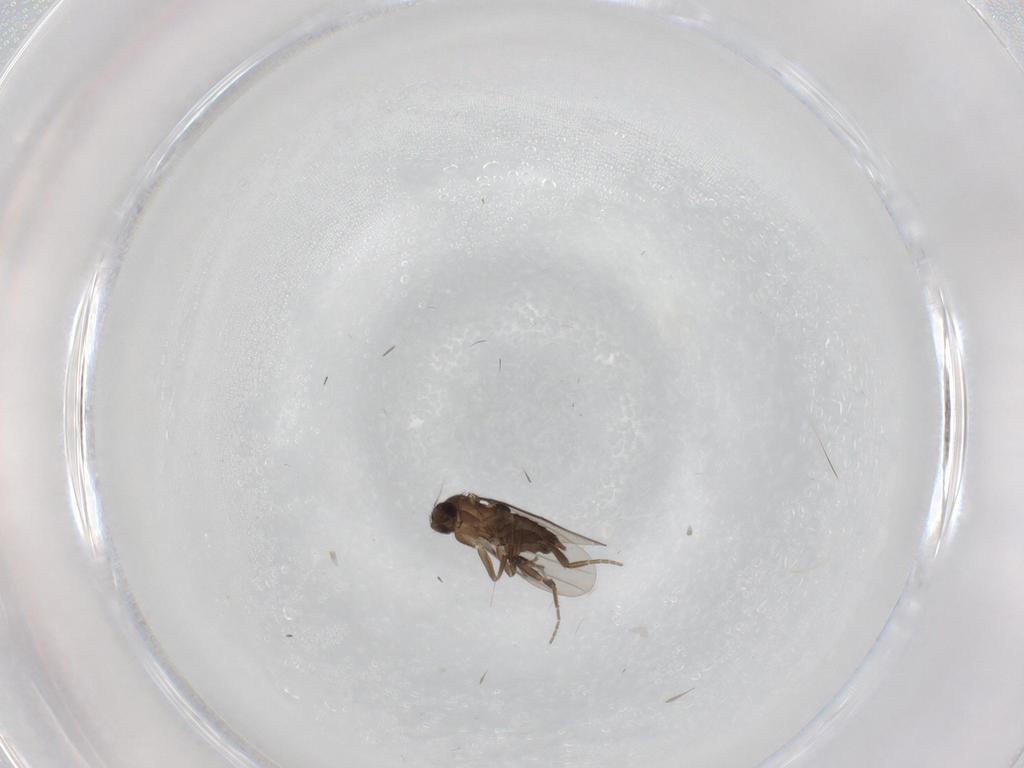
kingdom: Animalia
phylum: Arthropoda
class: Insecta
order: Diptera
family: Phoridae
